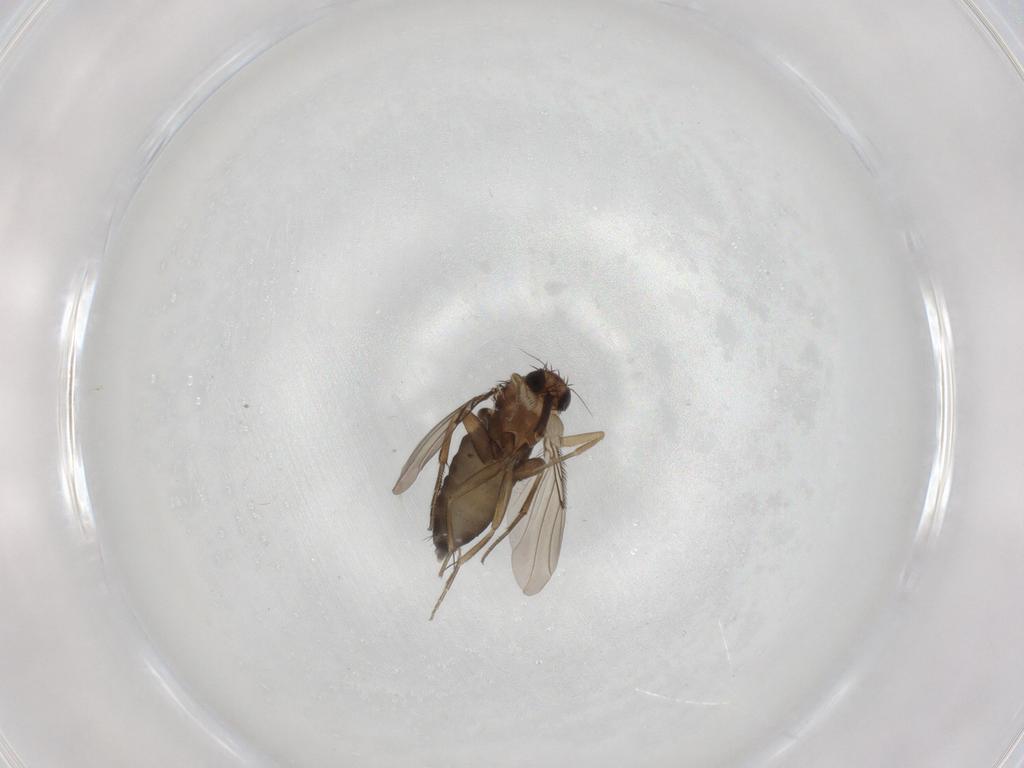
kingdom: Animalia
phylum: Arthropoda
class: Insecta
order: Diptera
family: Phoridae
